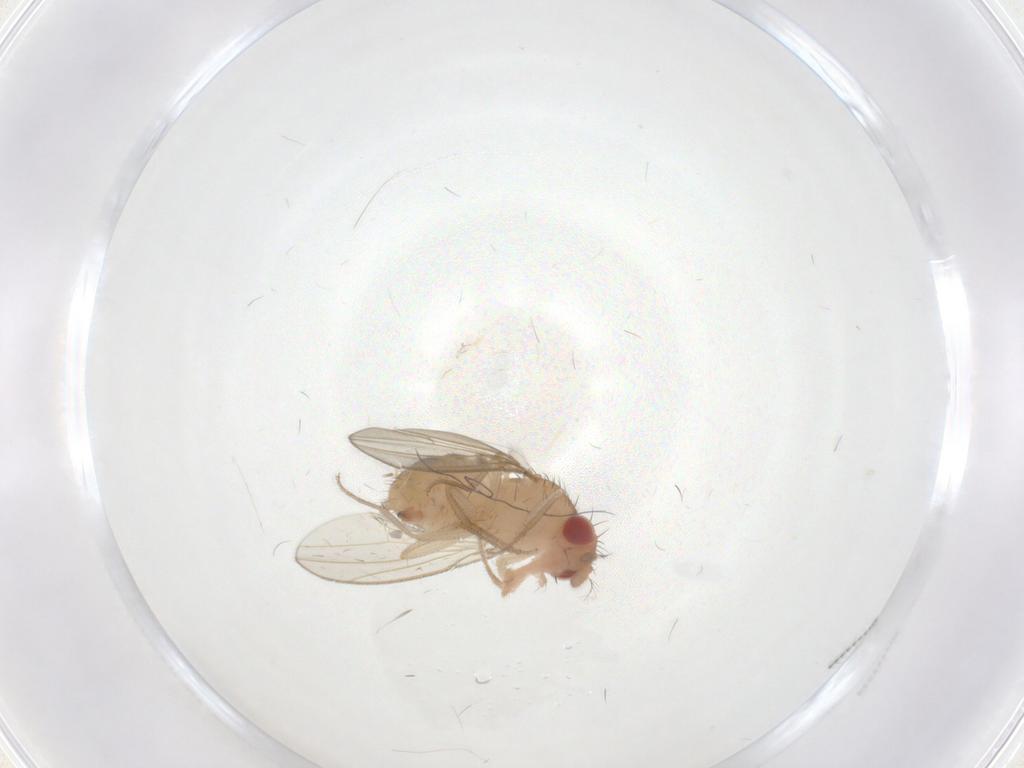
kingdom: Animalia
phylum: Arthropoda
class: Insecta
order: Diptera
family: Drosophilidae
